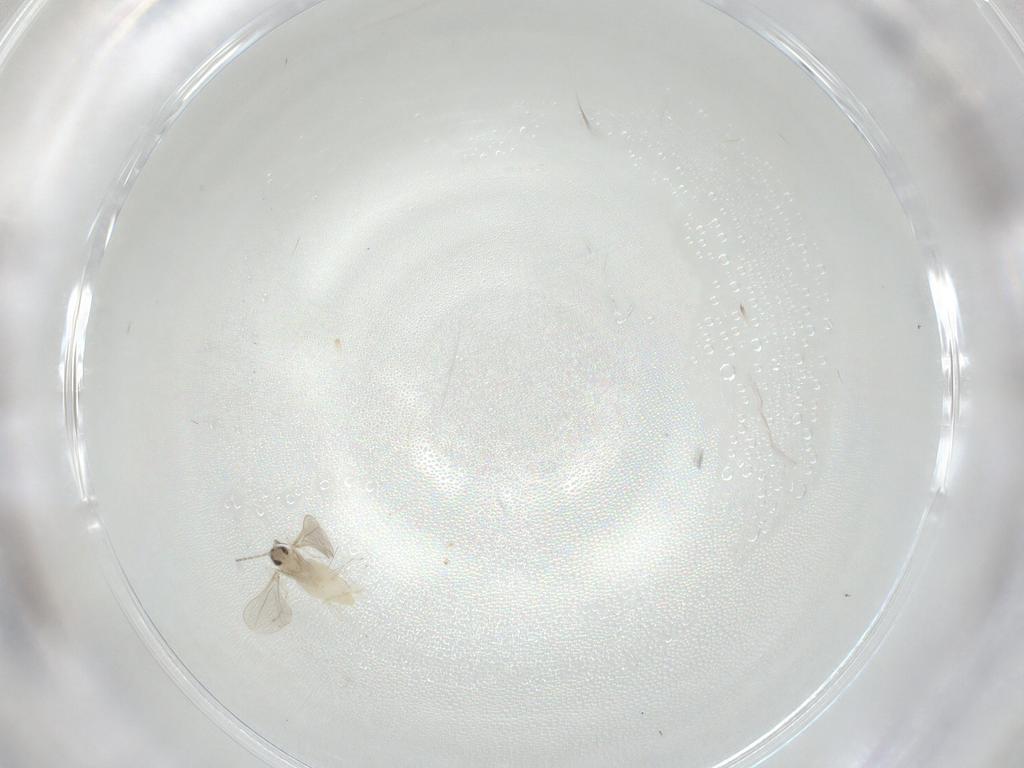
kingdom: Animalia
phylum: Arthropoda
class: Insecta
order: Diptera
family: Cecidomyiidae
